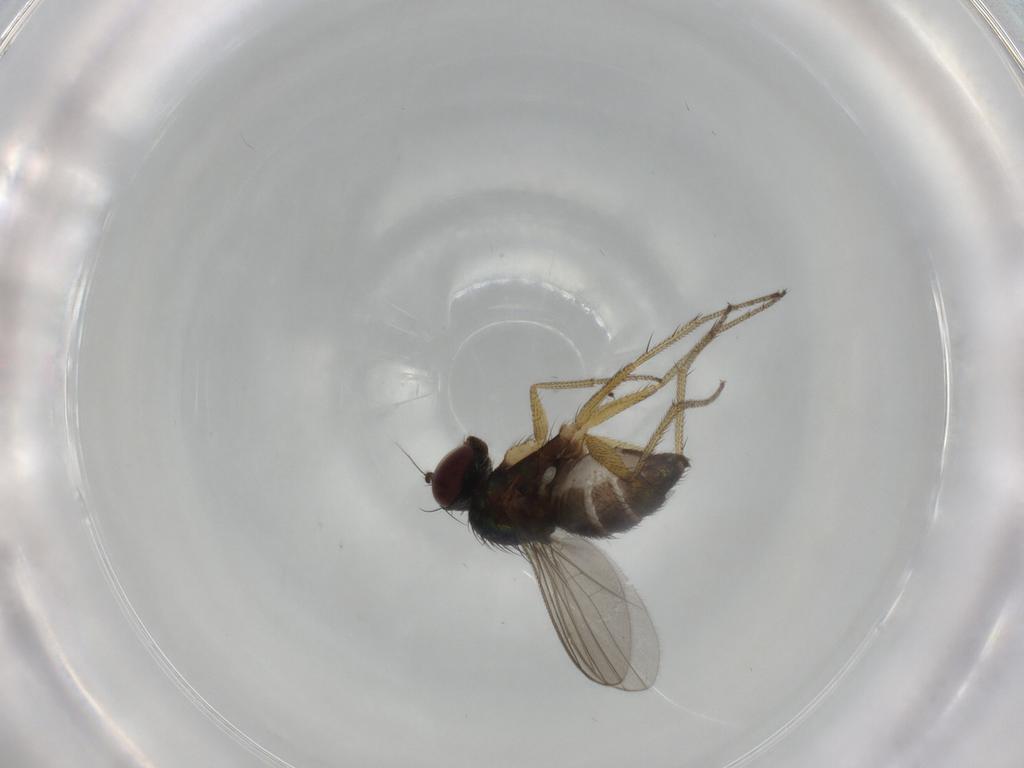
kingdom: Animalia
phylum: Arthropoda
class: Insecta
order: Diptera
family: Dolichopodidae
